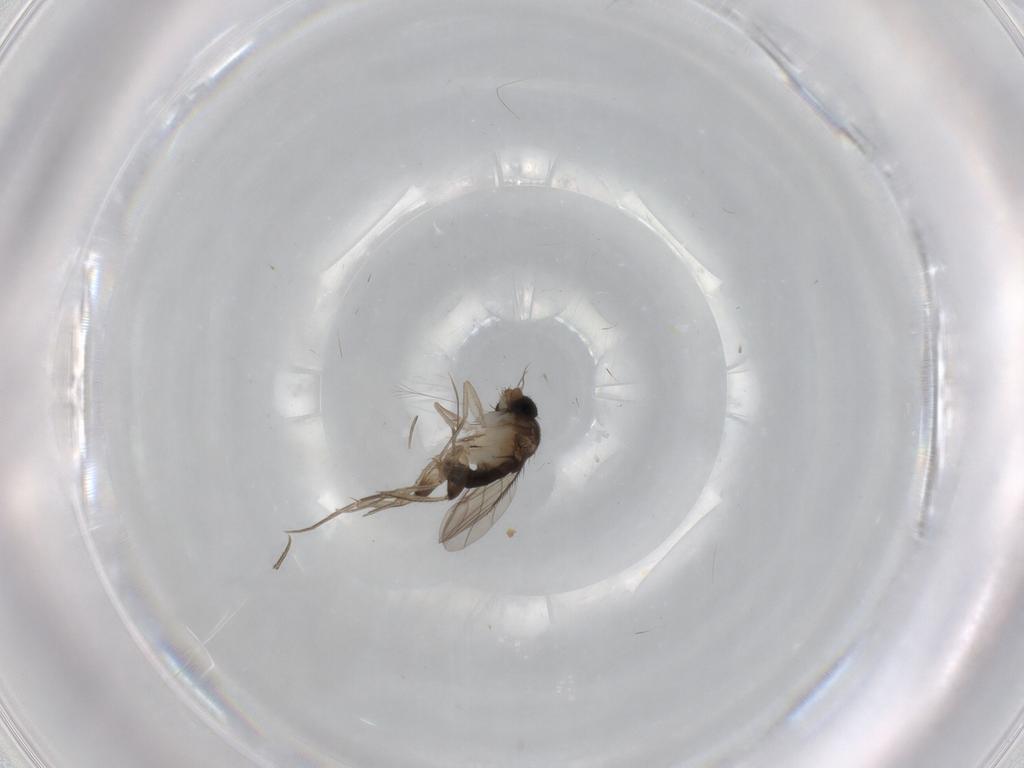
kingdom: Animalia
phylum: Arthropoda
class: Insecta
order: Diptera
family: Phoridae
